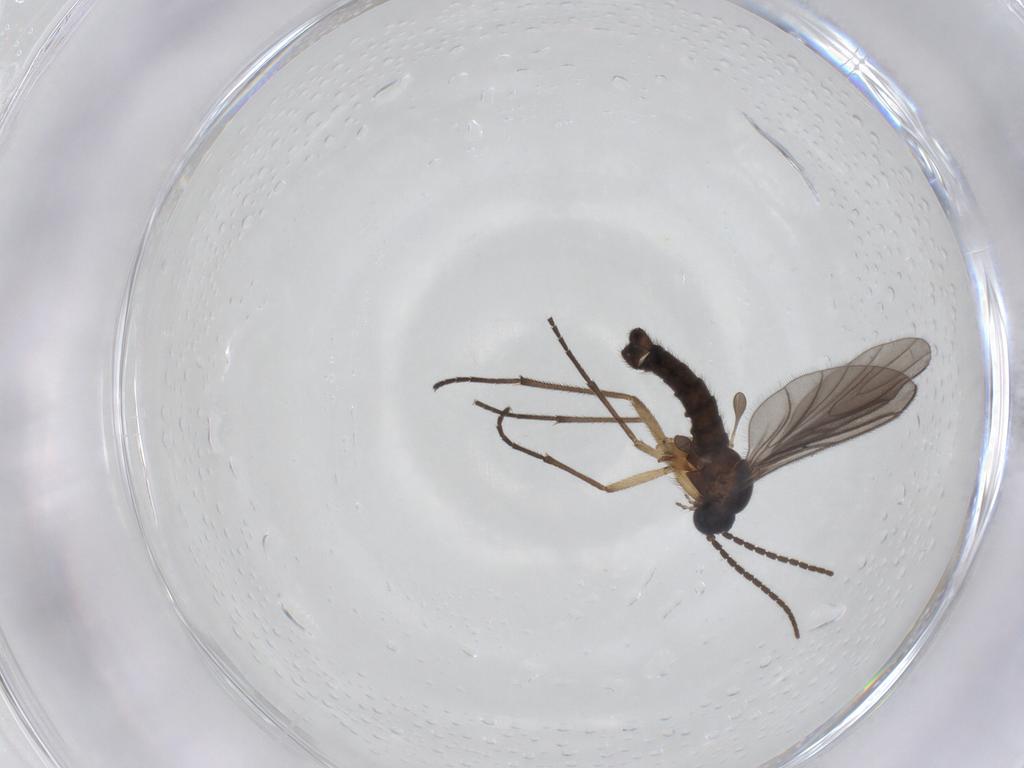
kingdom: Animalia
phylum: Arthropoda
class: Insecta
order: Diptera
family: Sciaridae
